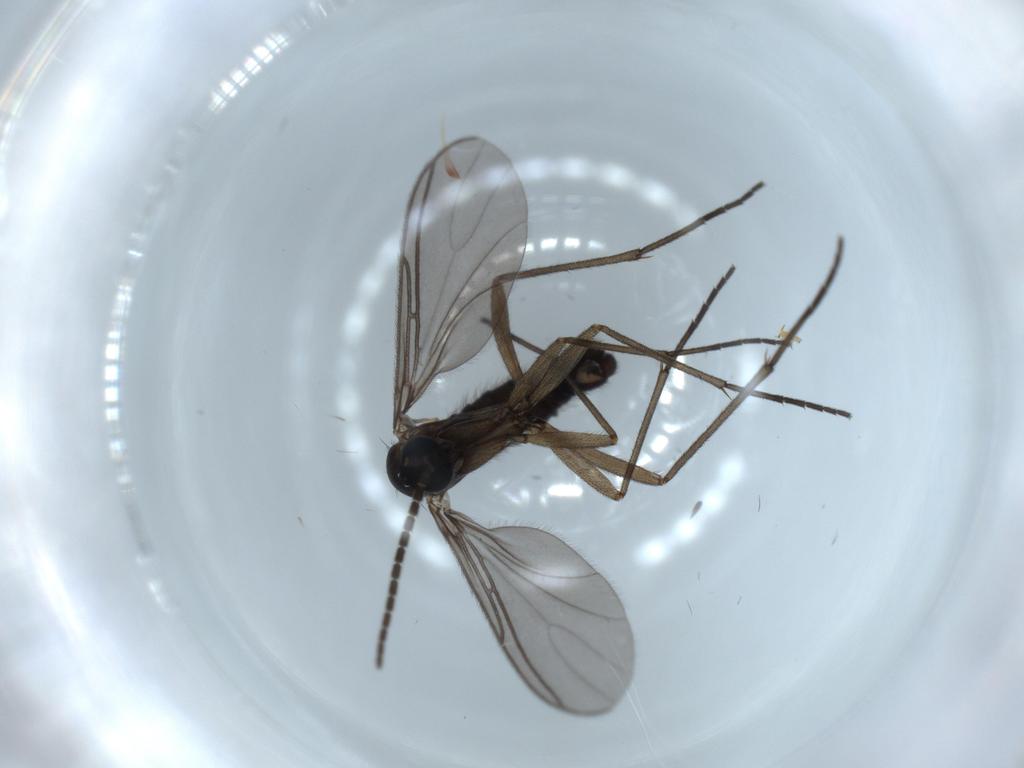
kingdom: Animalia
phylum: Arthropoda
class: Insecta
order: Diptera
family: Sciaridae
